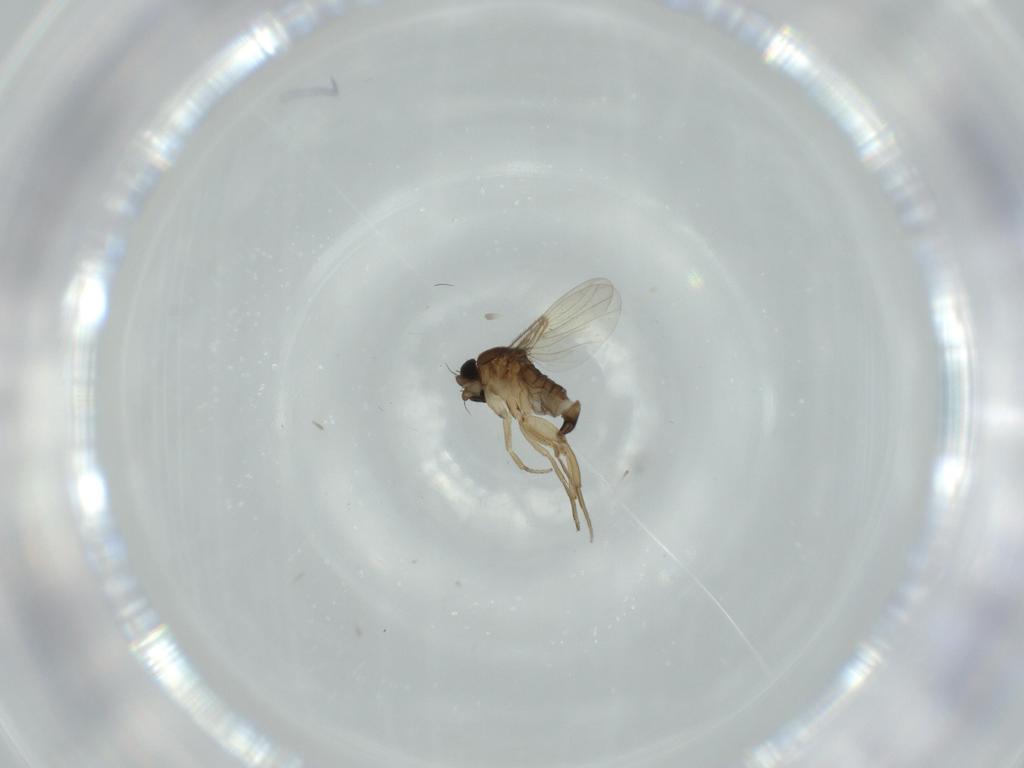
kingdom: Animalia
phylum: Arthropoda
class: Insecta
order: Diptera
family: Phoridae
